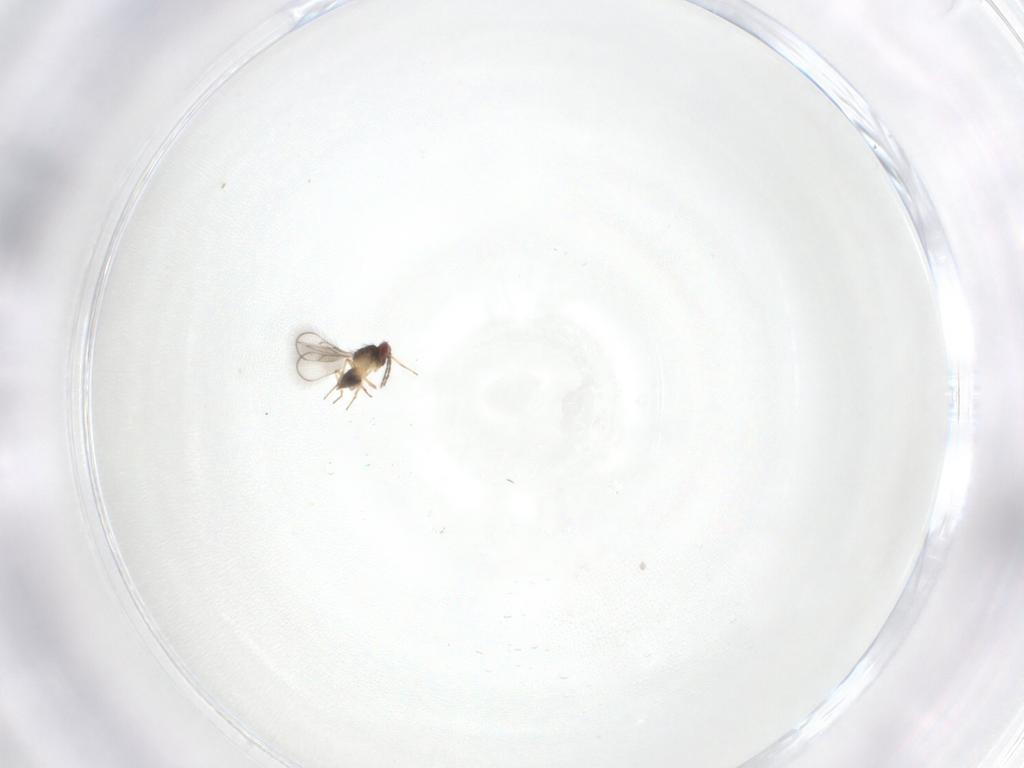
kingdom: Animalia
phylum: Arthropoda
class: Insecta
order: Hymenoptera
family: Eulophidae
